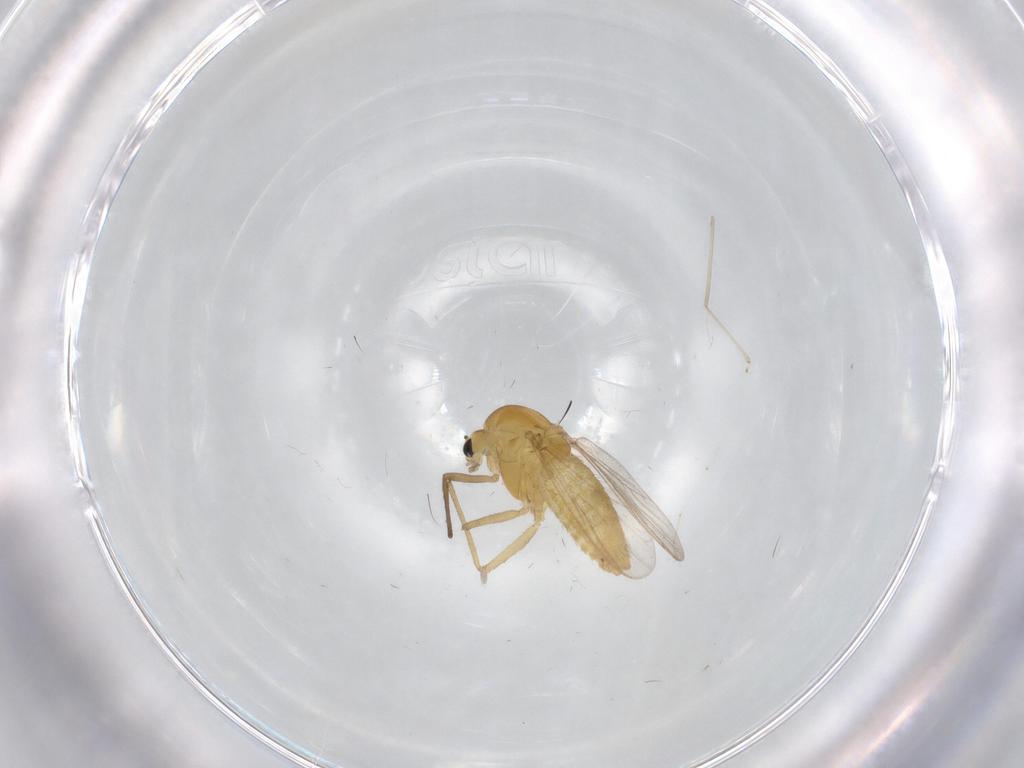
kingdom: Animalia
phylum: Arthropoda
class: Insecta
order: Diptera
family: Chironomidae
